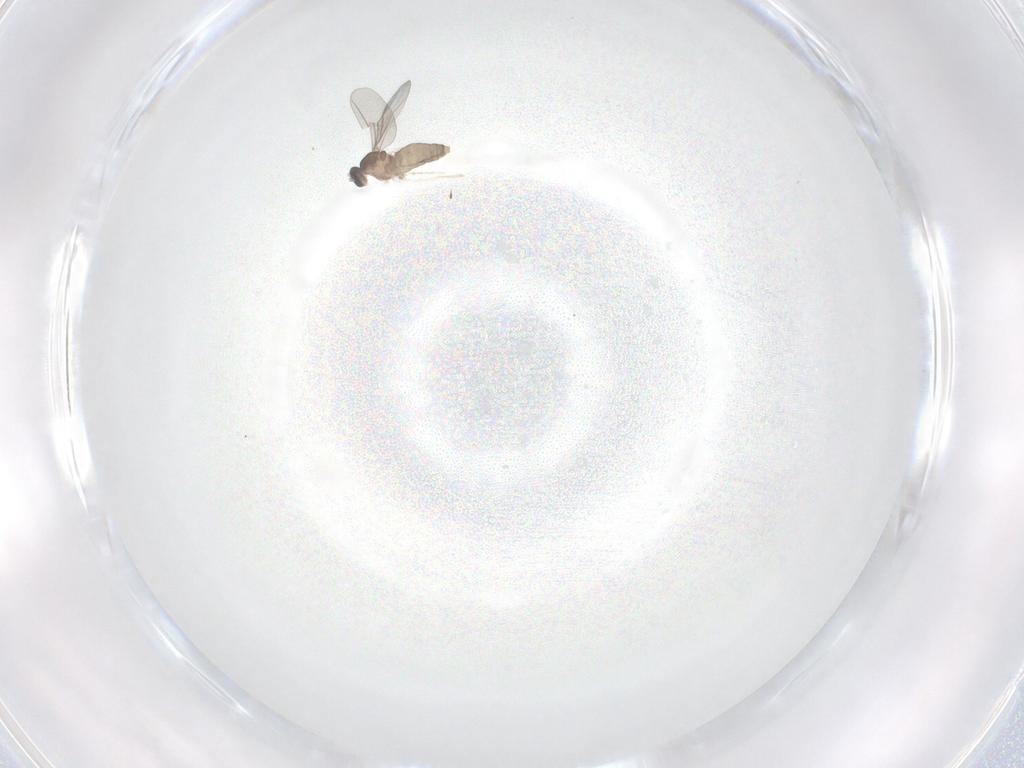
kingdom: Animalia
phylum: Arthropoda
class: Insecta
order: Diptera
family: Cecidomyiidae
